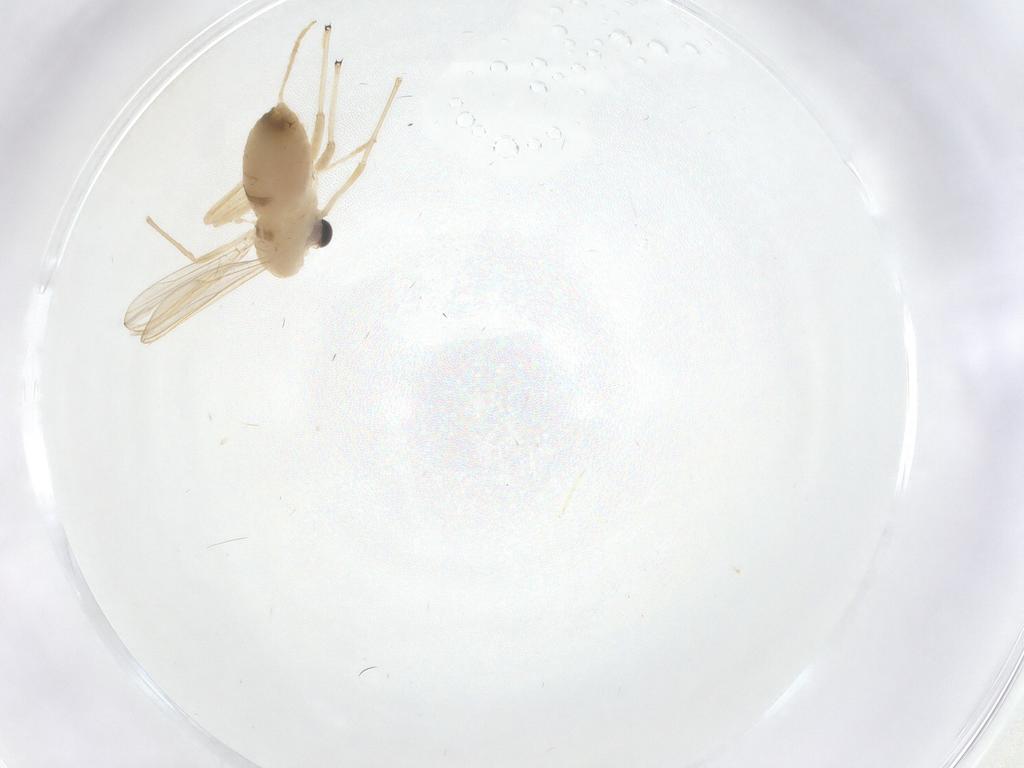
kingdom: Animalia
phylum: Arthropoda
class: Insecta
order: Diptera
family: Chironomidae
